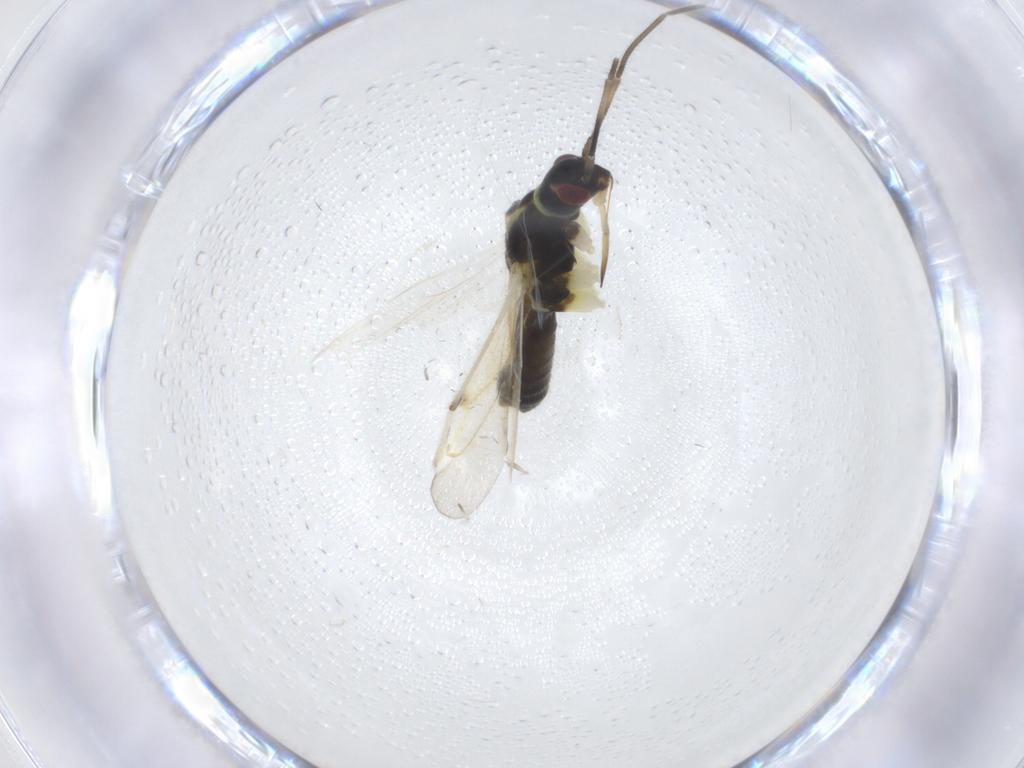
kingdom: Animalia
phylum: Arthropoda
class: Insecta
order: Hemiptera
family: Miridae
